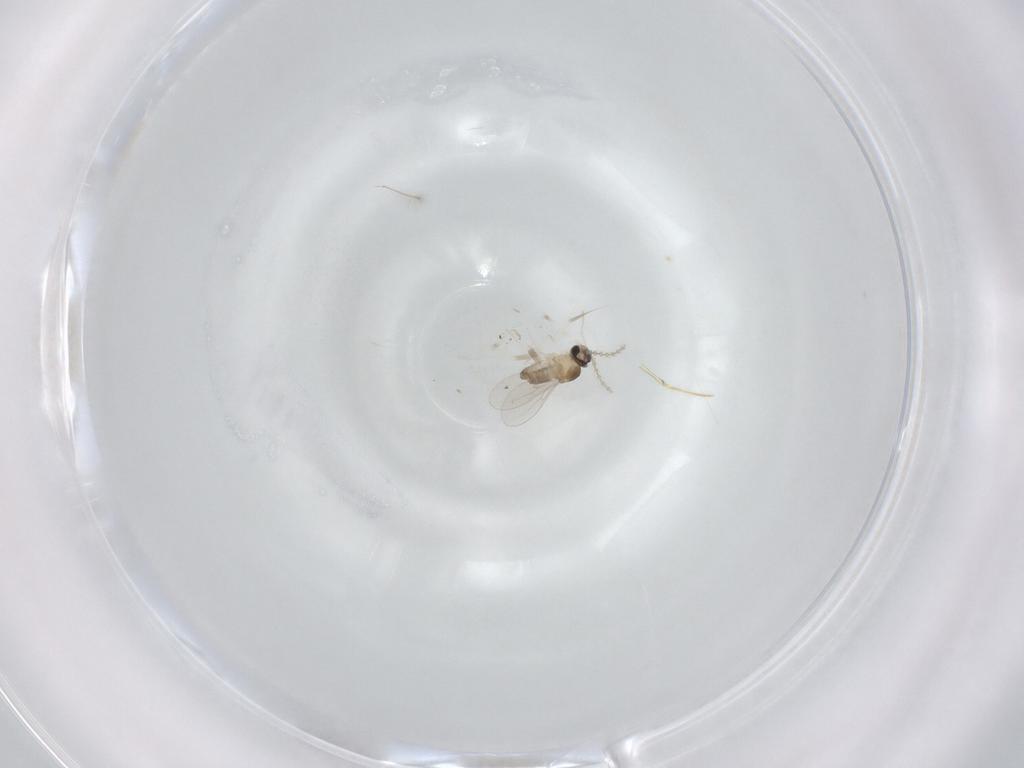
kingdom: Animalia
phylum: Arthropoda
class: Insecta
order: Diptera
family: Cecidomyiidae
